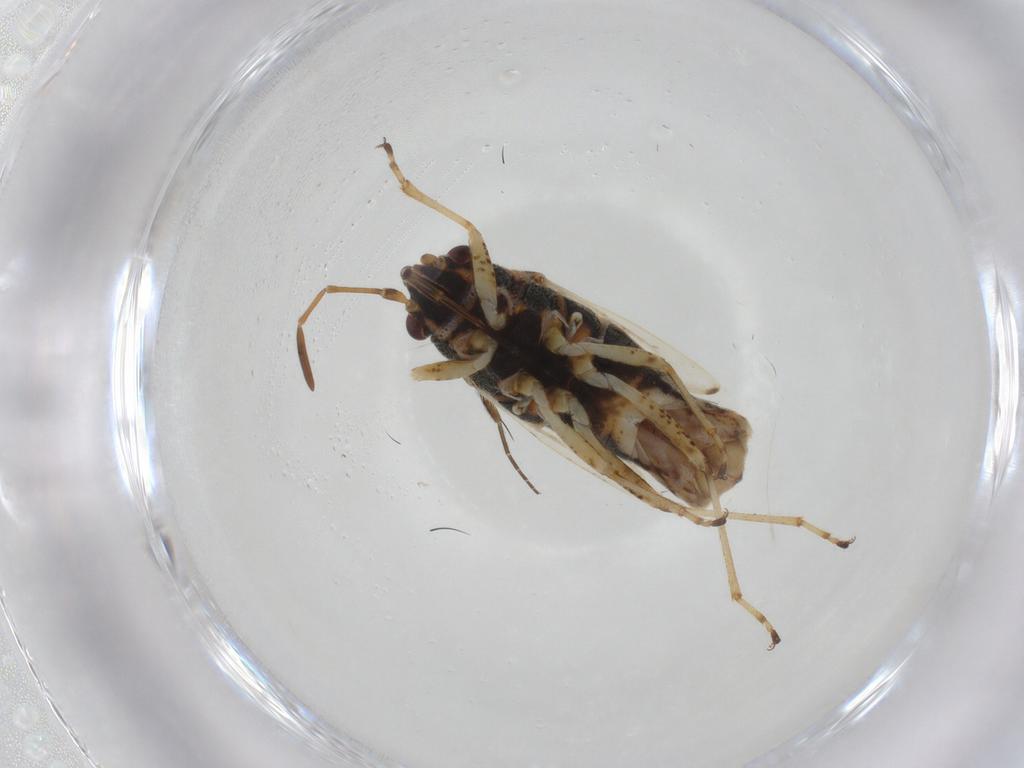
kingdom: Animalia
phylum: Arthropoda
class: Insecta
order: Hemiptera
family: Lygaeidae
